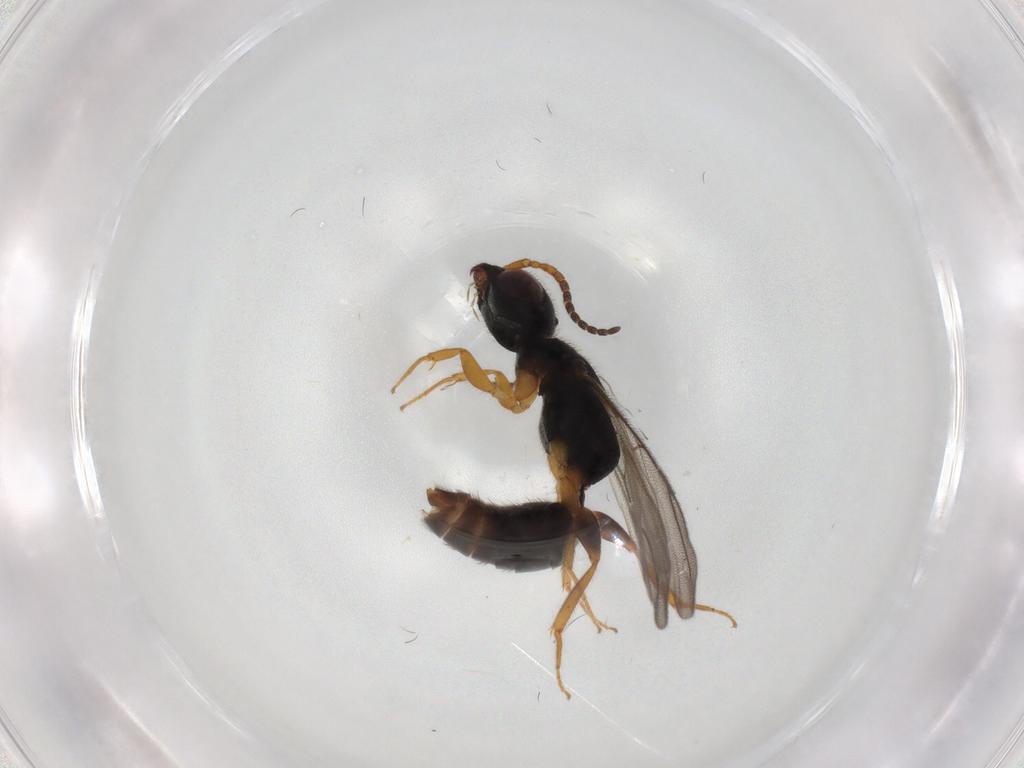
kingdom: Animalia
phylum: Arthropoda
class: Insecta
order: Hymenoptera
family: Bethylidae
